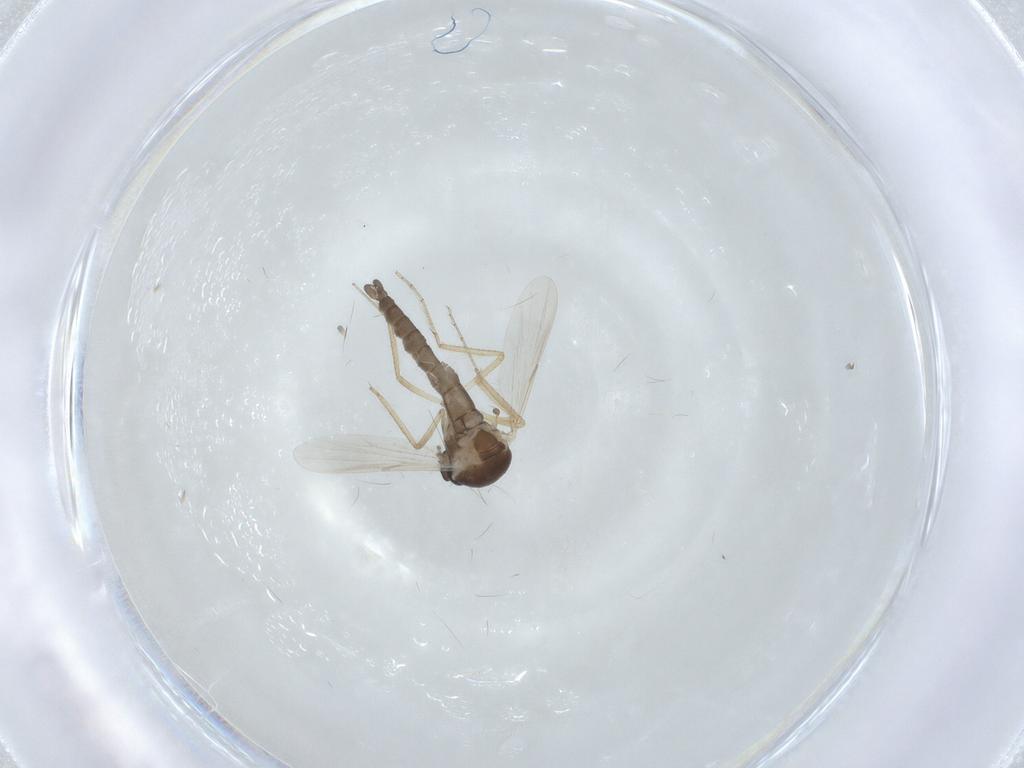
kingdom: Animalia
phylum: Arthropoda
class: Insecta
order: Diptera
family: Ceratopogonidae
